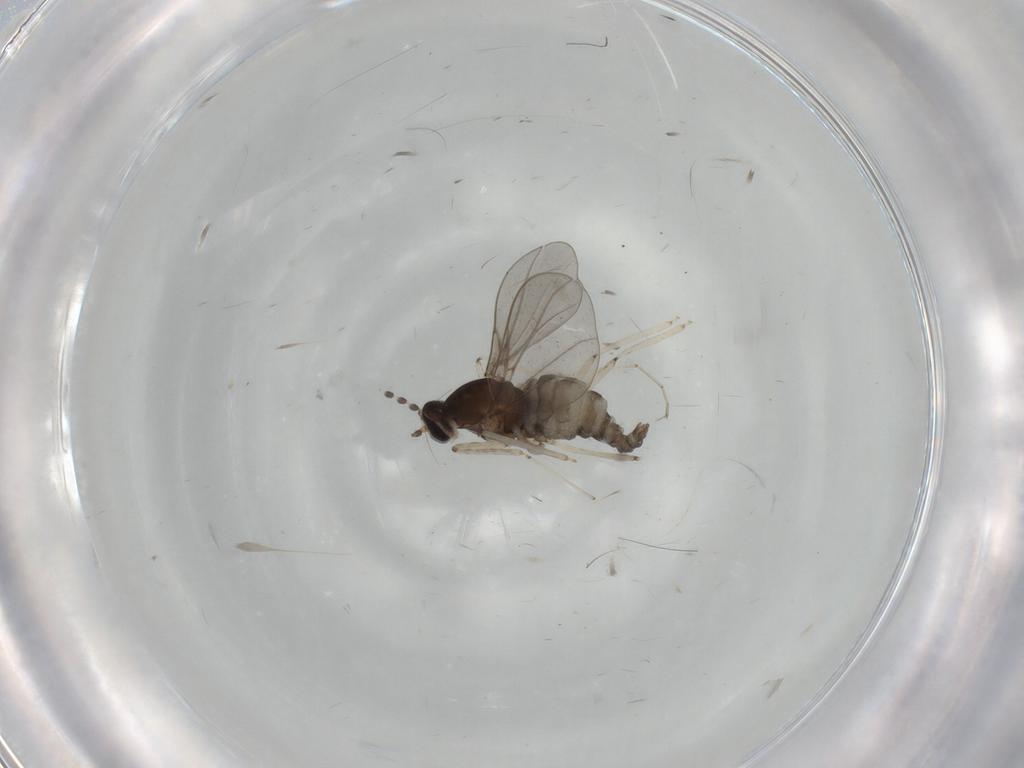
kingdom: Animalia
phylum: Arthropoda
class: Insecta
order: Diptera
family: Cecidomyiidae
